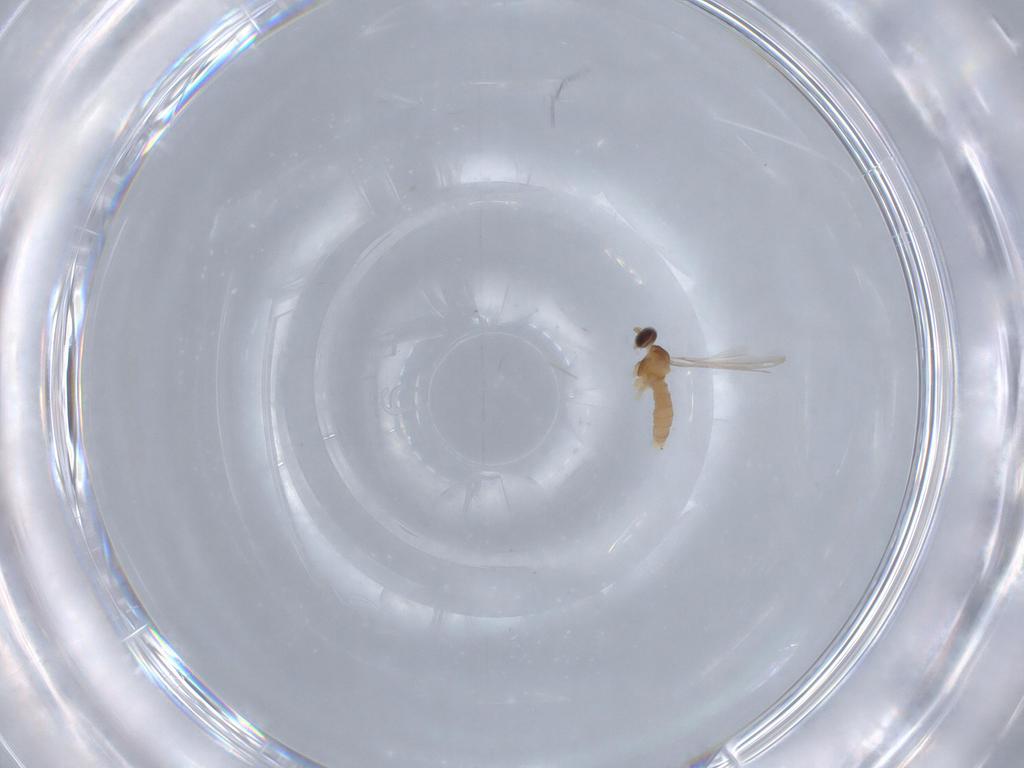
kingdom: Animalia
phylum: Arthropoda
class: Insecta
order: Diptera
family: Cecidomyiidae
